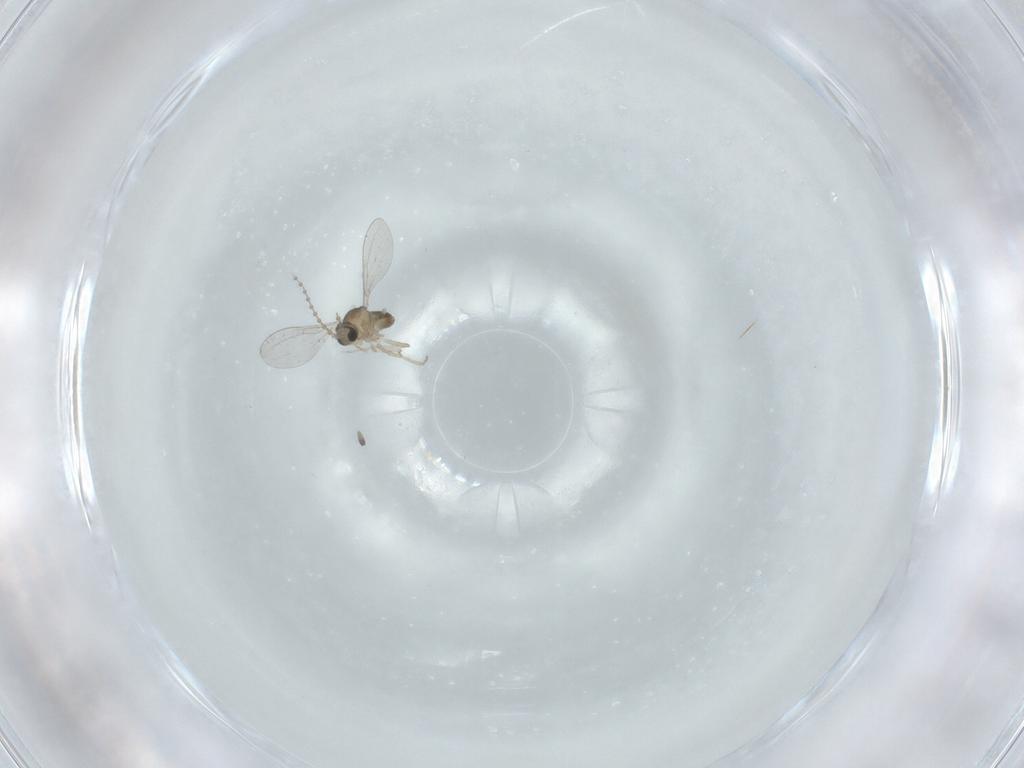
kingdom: Animalia
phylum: Arthropoda
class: Insecta
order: Diptera
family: Cecidomyiidae
